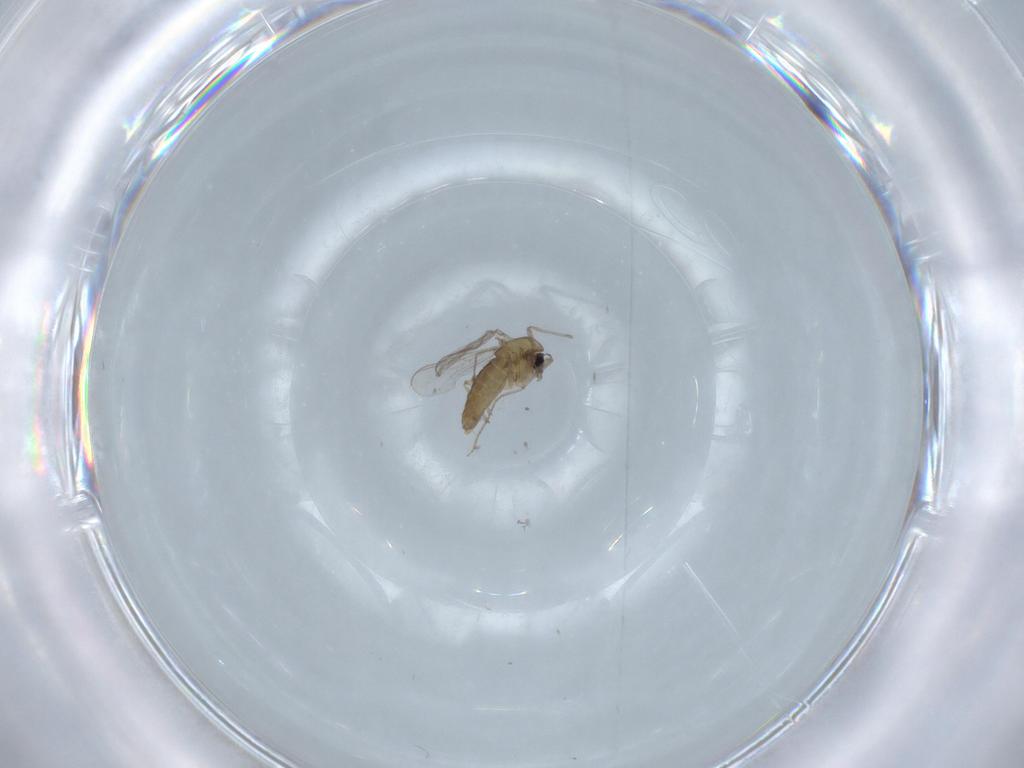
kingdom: Animalia
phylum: Arthropoda
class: Insecta
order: Diptera
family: Chironomidae
